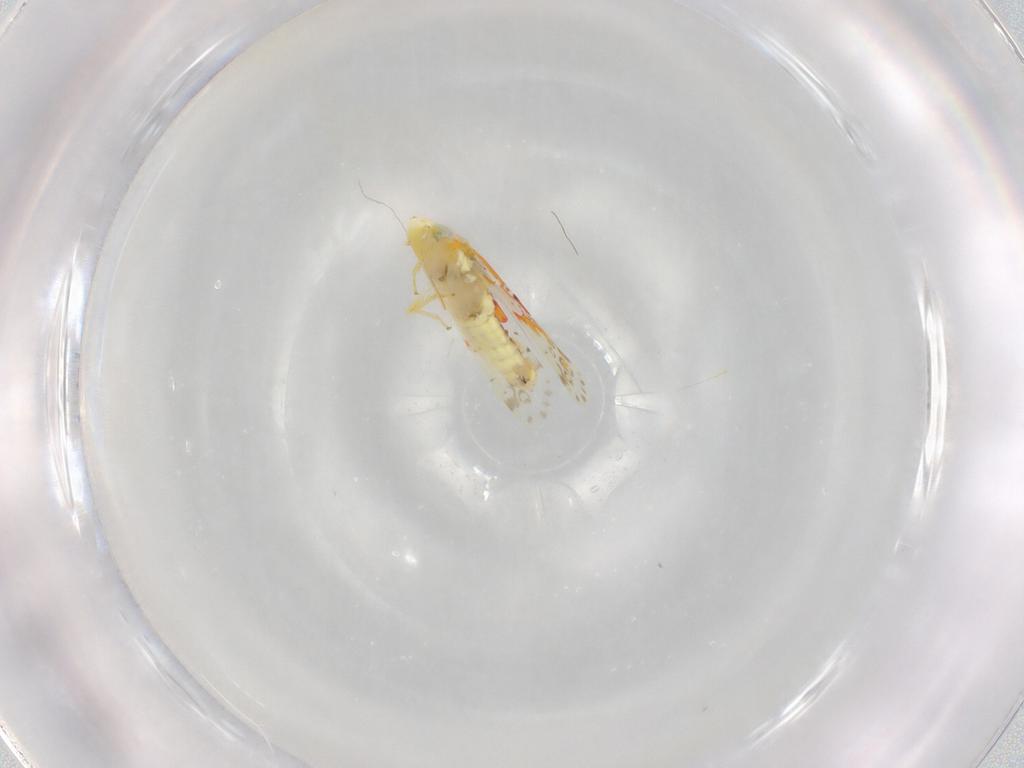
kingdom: Animalia
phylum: Arthropoda
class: Insecta
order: Hemiptera
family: Cicadellidae
